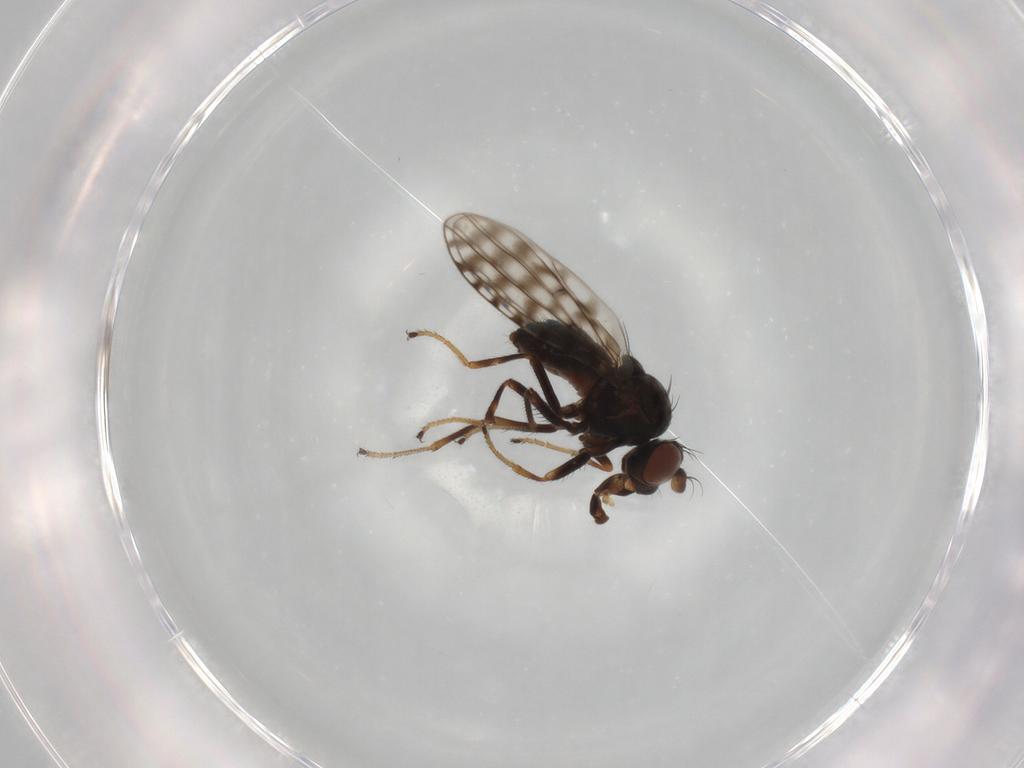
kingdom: Animalia
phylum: Arthropoda
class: Insecta
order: Diptera
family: Ephydridae
